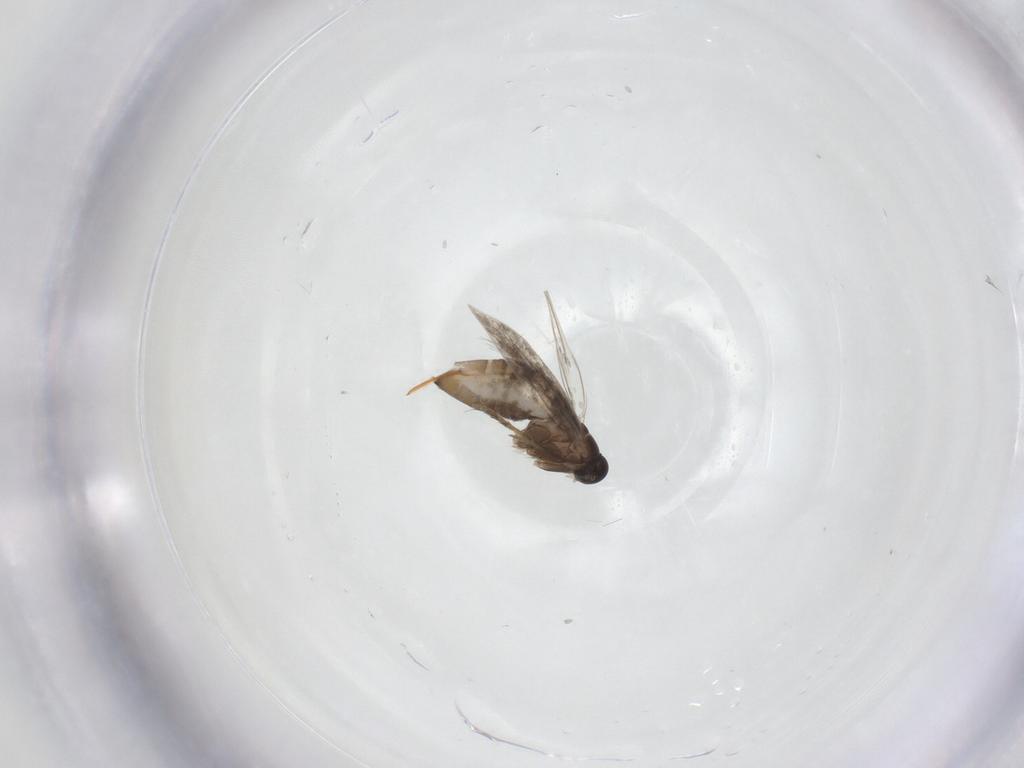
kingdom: Animalia
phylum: Arthropoda
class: Insecta
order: Lepidoptera
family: Heliozelidae
